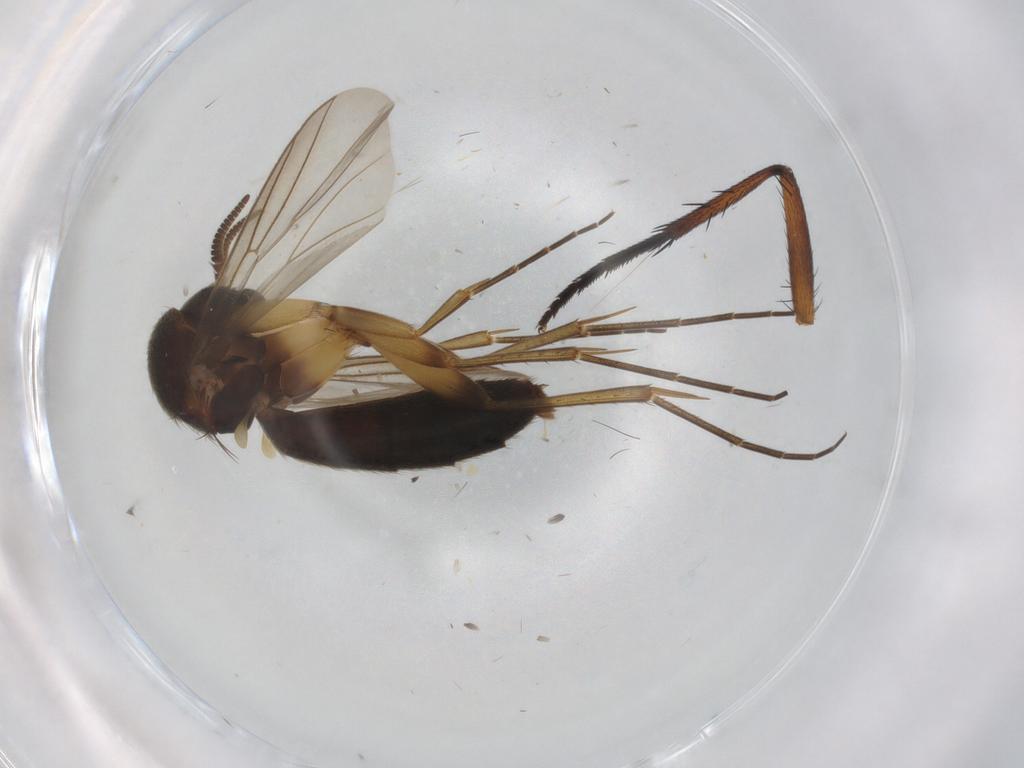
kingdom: Animalia
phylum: Arthropoda
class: Insecta
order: Diptera
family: Mycetophilidae
